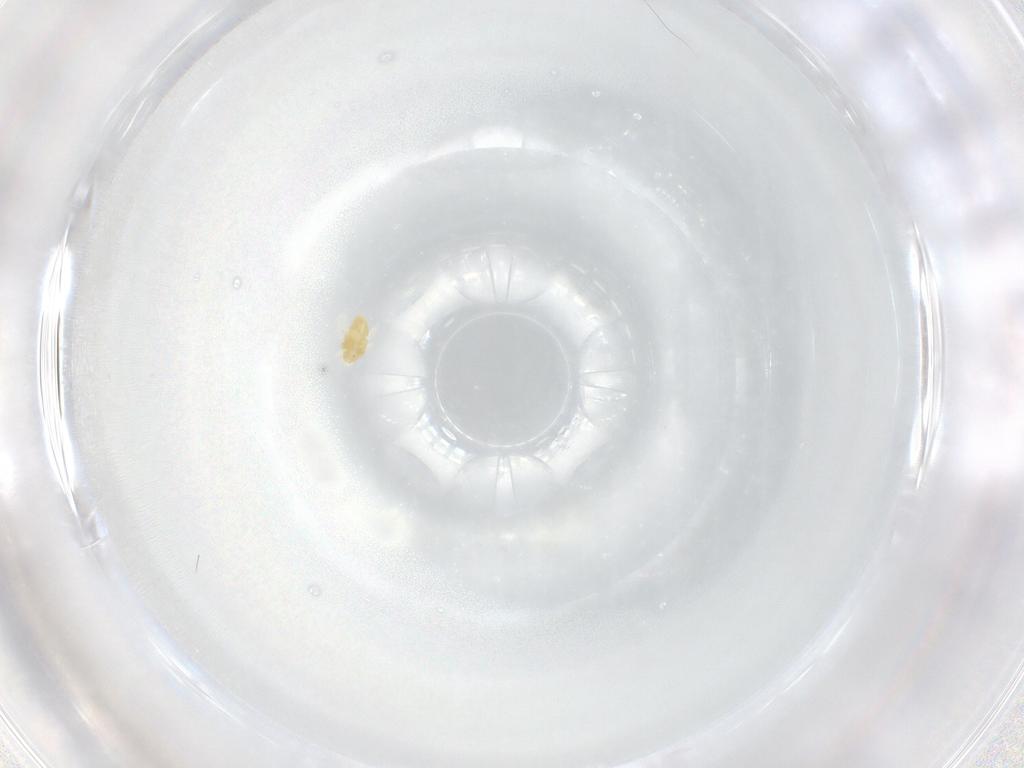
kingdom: Animalia
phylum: Arthropoda
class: Arachnida
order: Trombidiformes
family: Eupodidae
